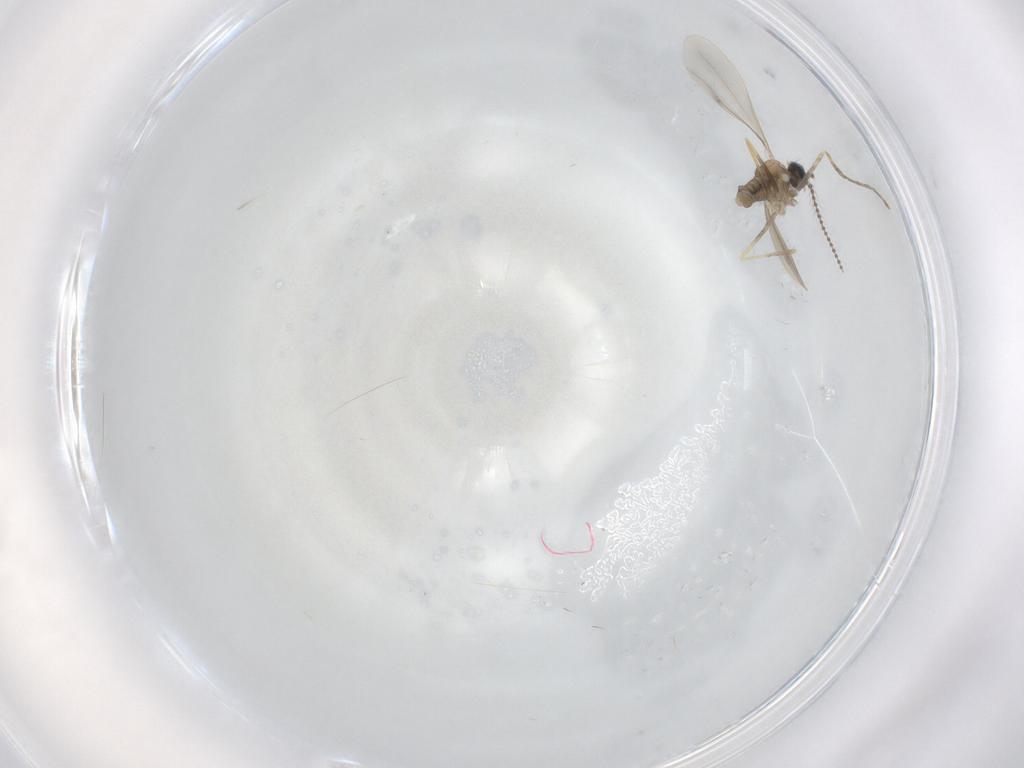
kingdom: Animalia
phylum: Arthropoda
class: Insecta
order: Diptera
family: Cecidomyiidae
